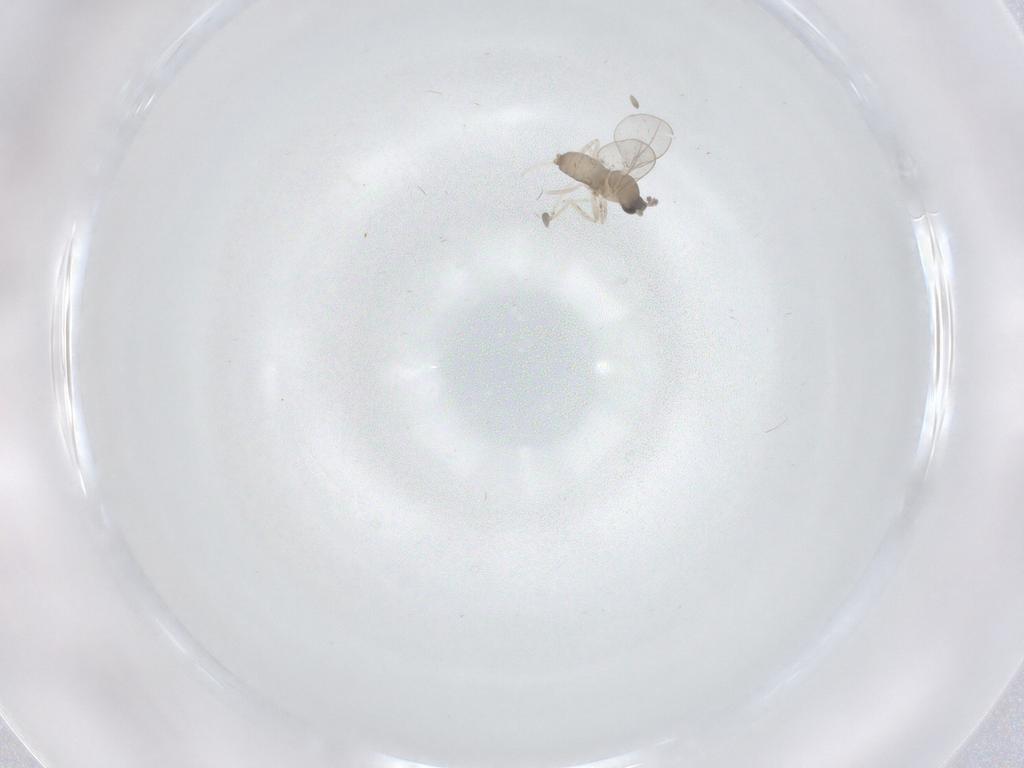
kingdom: Animalia
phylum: Arthropoda
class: Insecta
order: Diptera
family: Cecidomyiidae
